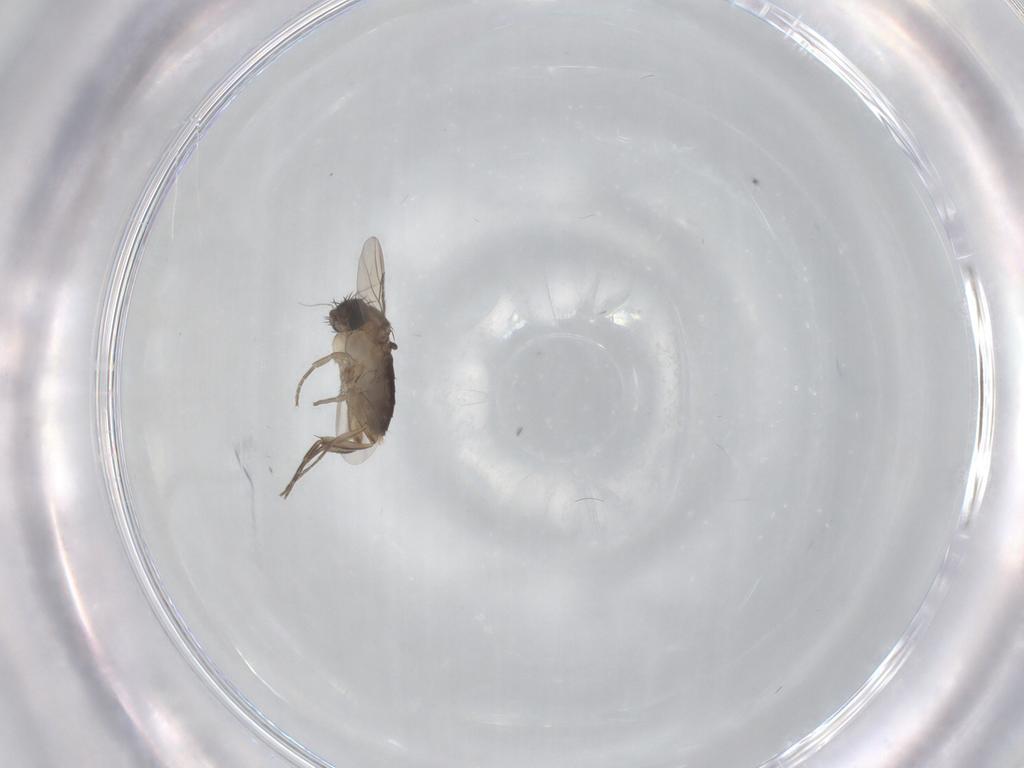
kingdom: Animalia
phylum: Arthropoda
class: Insecta
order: Diptera
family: Phoridae
